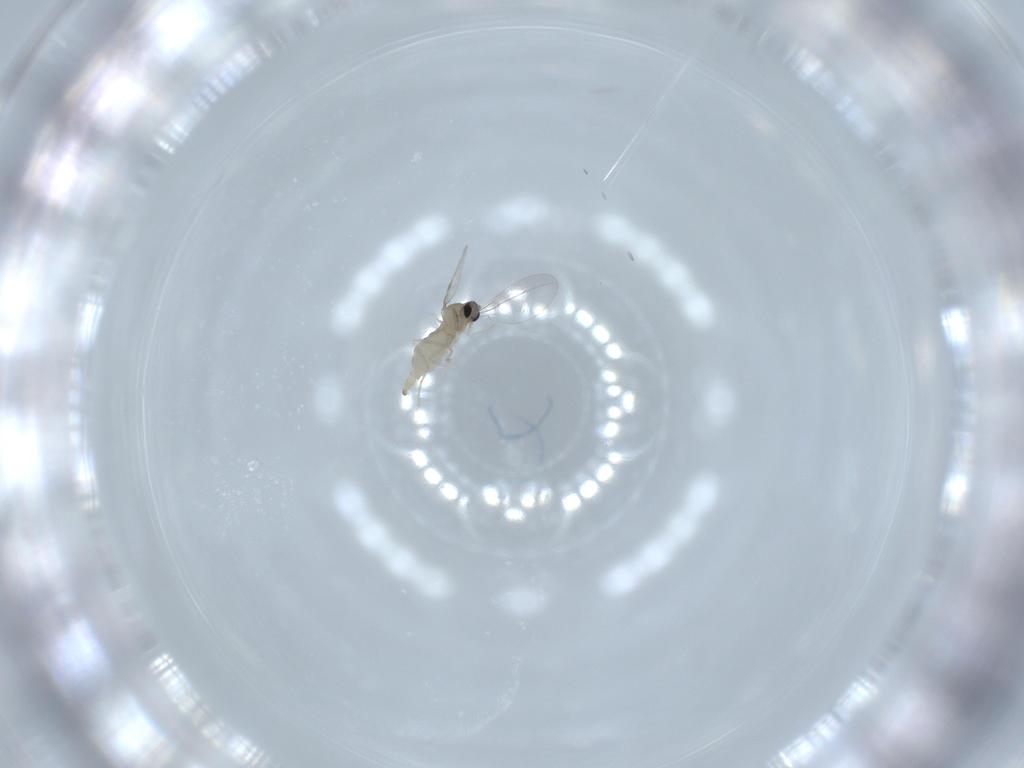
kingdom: Animalia
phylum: Arthropoda
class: Insecta
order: Diptera
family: Cecidomyiidae
